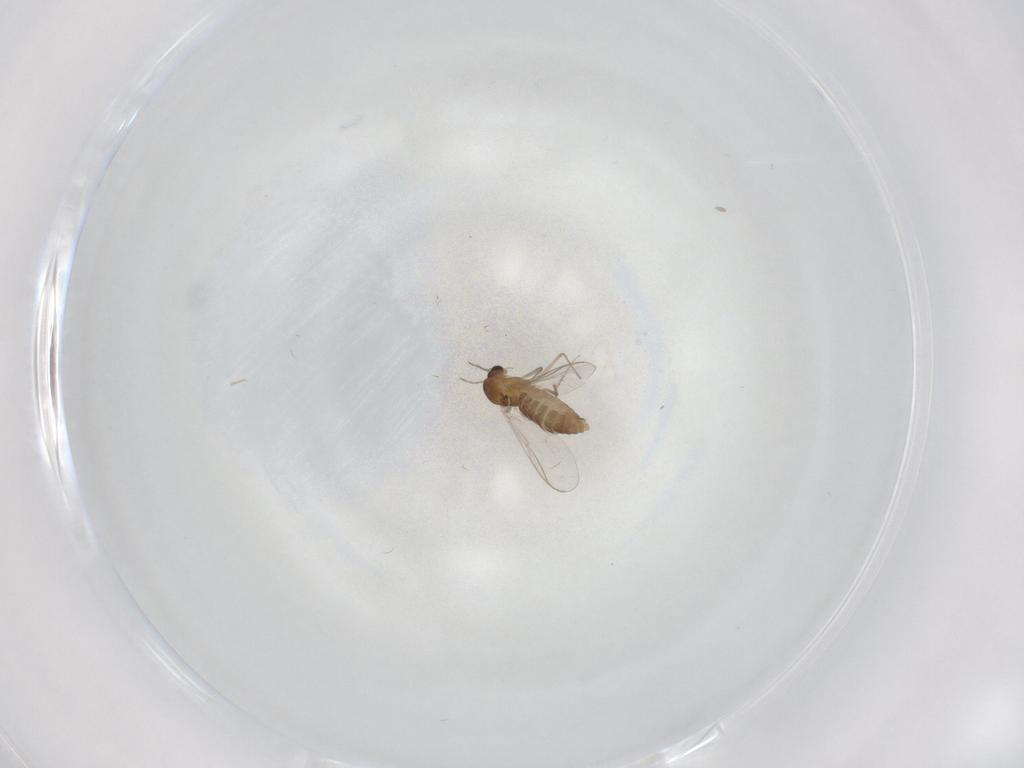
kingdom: Animalia
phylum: Arthropoda
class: Insecta
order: Diptera
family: Chironomidae
